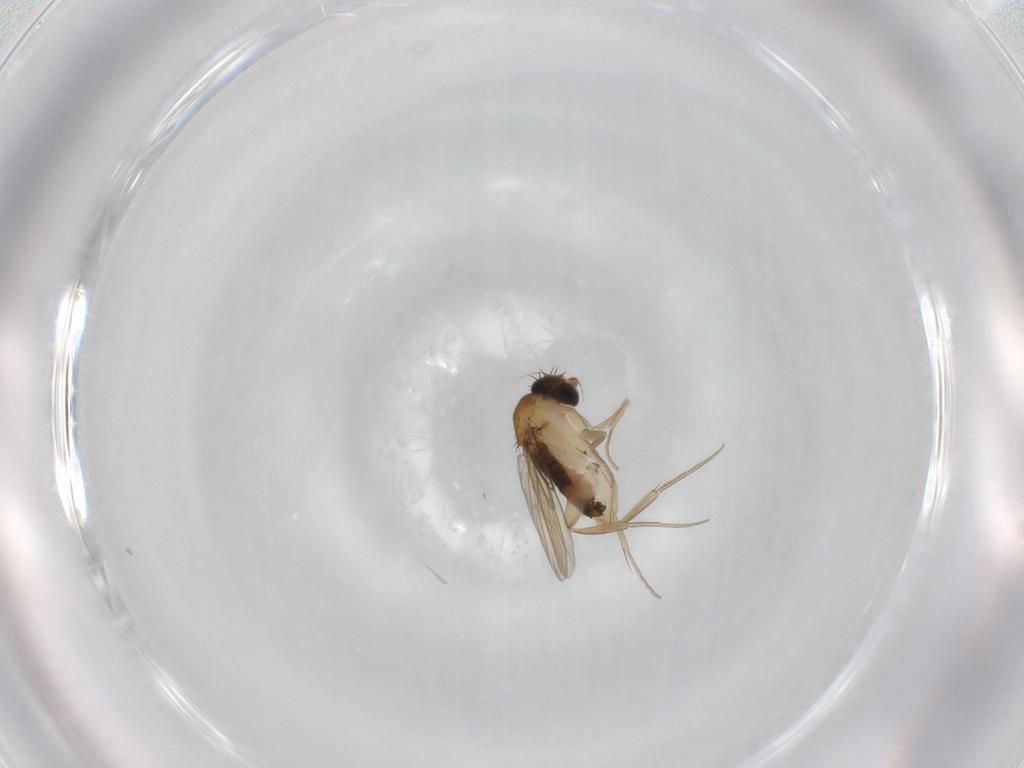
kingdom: Animalia
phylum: Arthropoda
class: Insecta
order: Diptera
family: Phoridae
